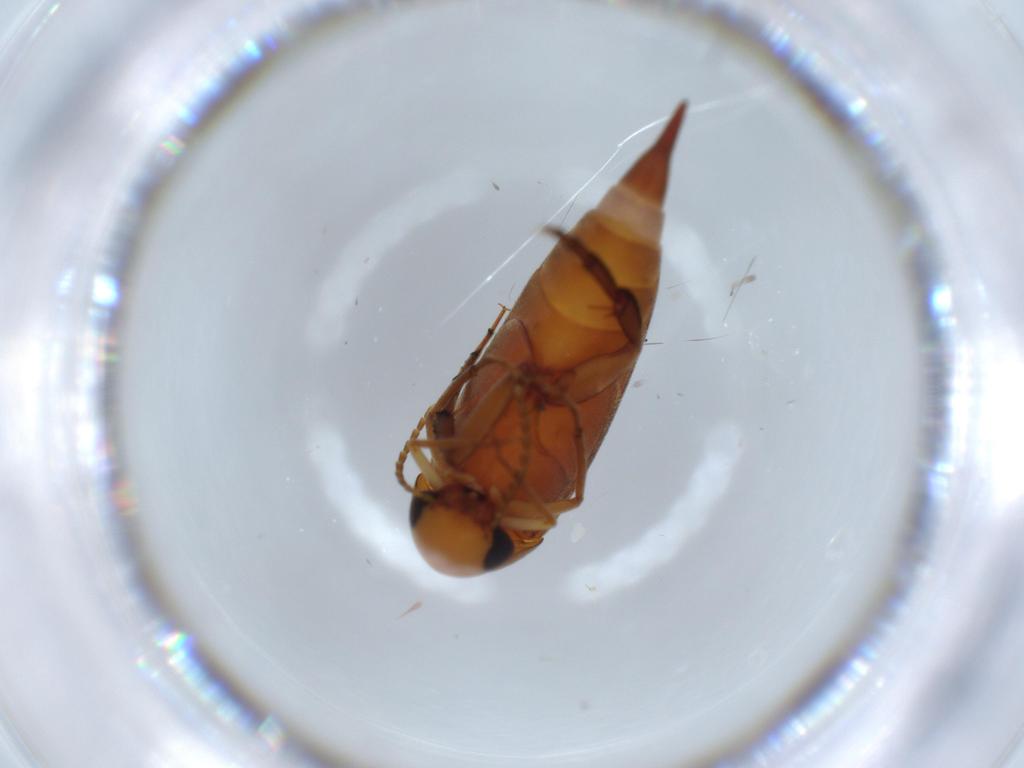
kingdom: Animalia
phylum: Arthropoda
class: Insecta
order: Coleoptera
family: Mordellidae
